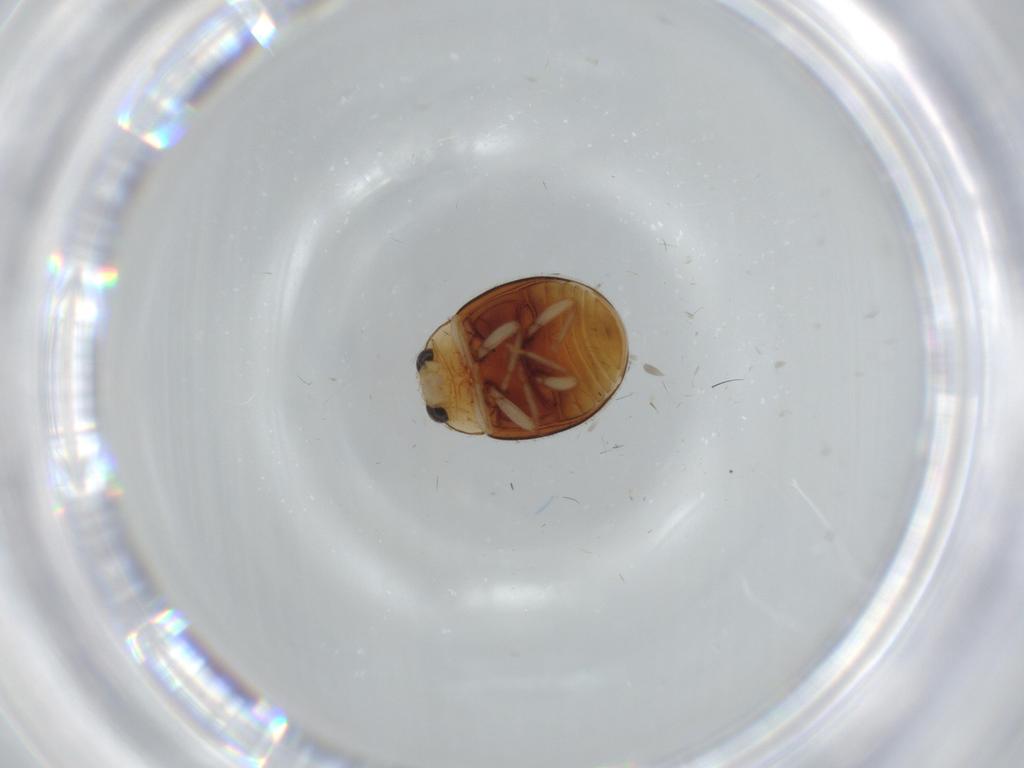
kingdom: Animalia
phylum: Arthropoda
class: Insecta
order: Coleoptera
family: Coccinellidae
